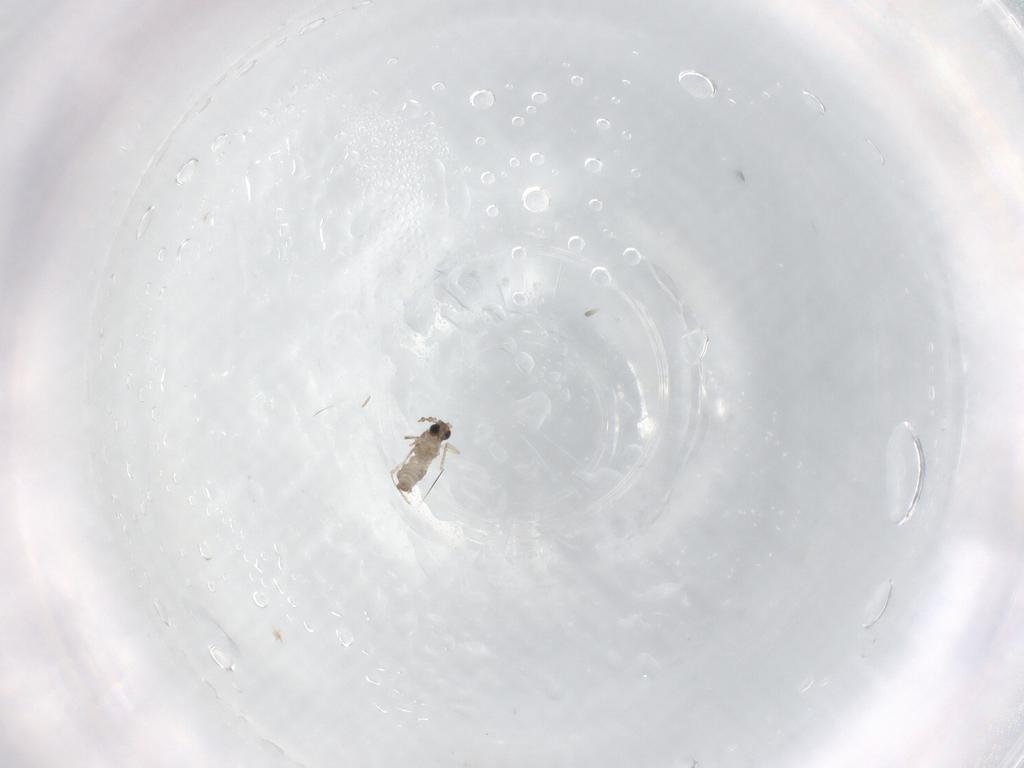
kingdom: Animalia
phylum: Arthropoda
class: Insecta
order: Diptera
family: Cecidomyiidae
